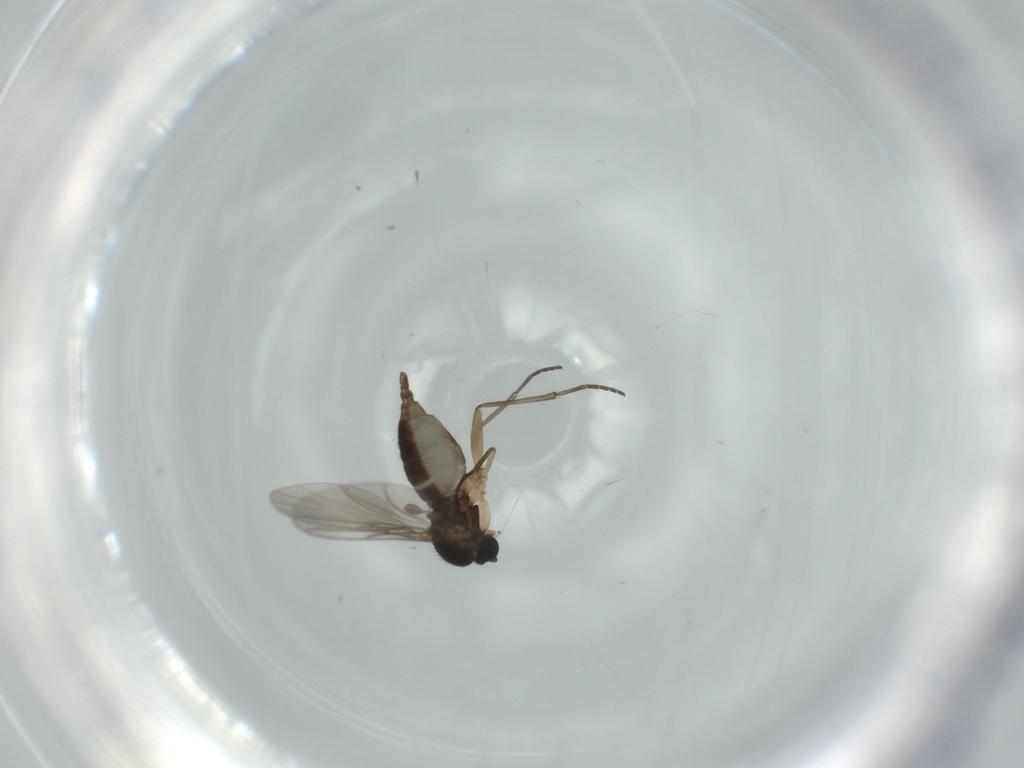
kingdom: Animalia
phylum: Arthropoda
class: Insecta
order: Diptera
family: Sciaridae
